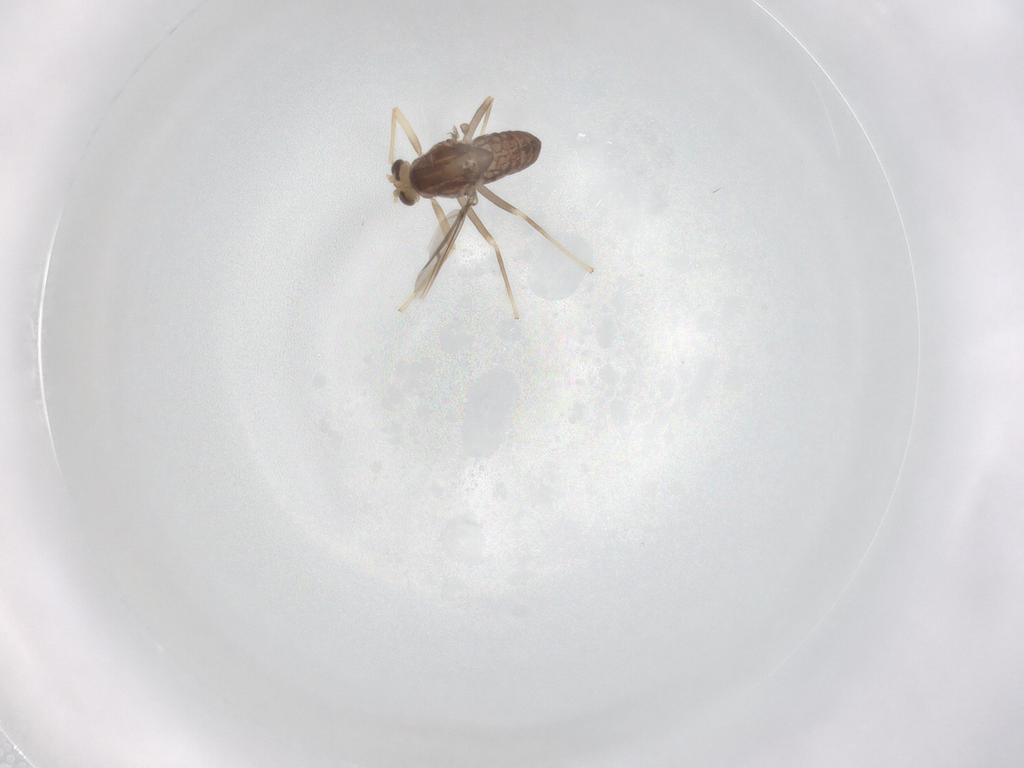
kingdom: Animalia
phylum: Arthropoda
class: Insecta
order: Diptera
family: Chironomidae
